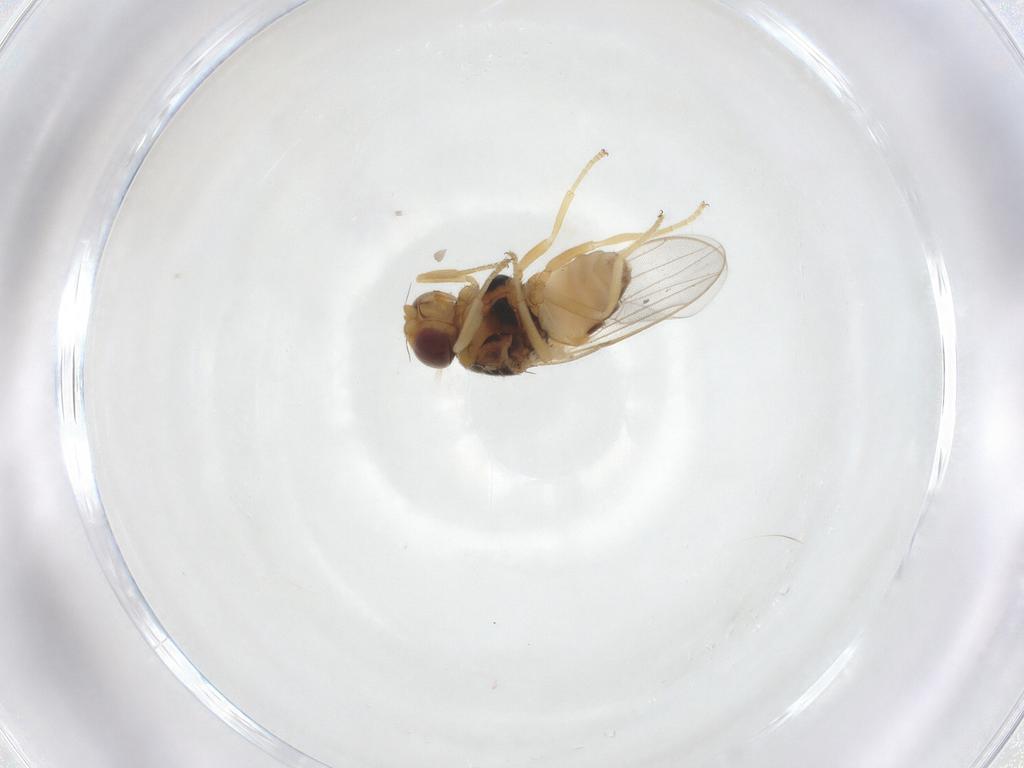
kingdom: Animalia
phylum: Arthropoda
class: Insecta
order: Diptera
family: Chloropidae
